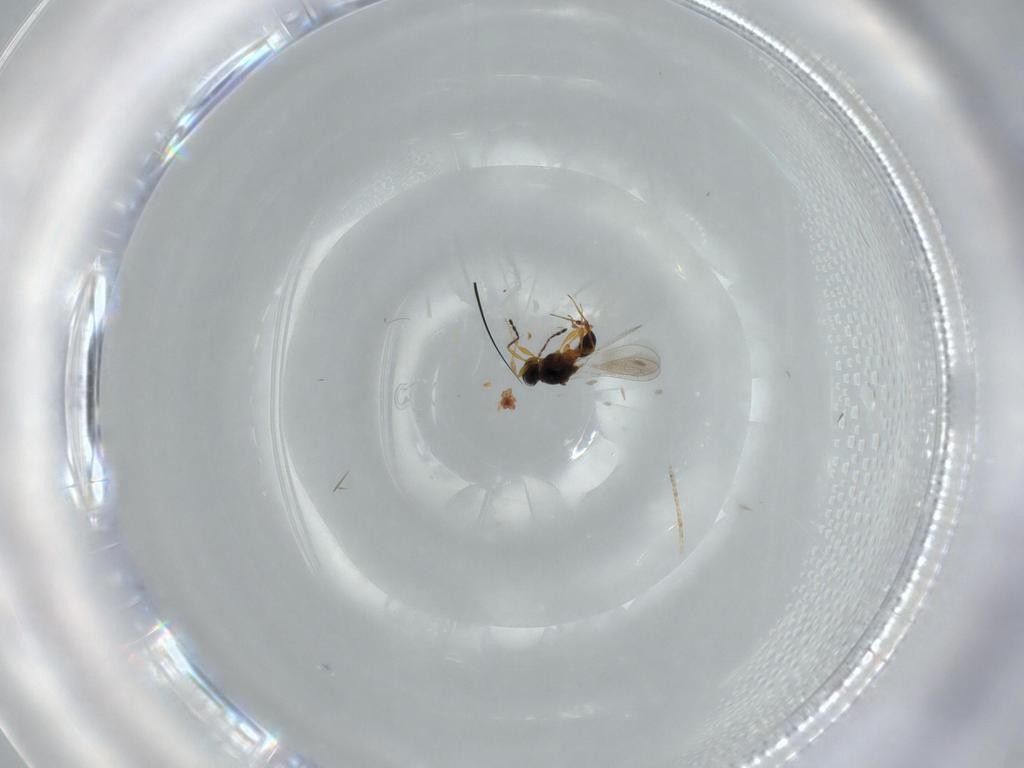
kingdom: Animalia
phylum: Arthropoda
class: Insecta
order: Hymenoptera
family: Platygastridae
